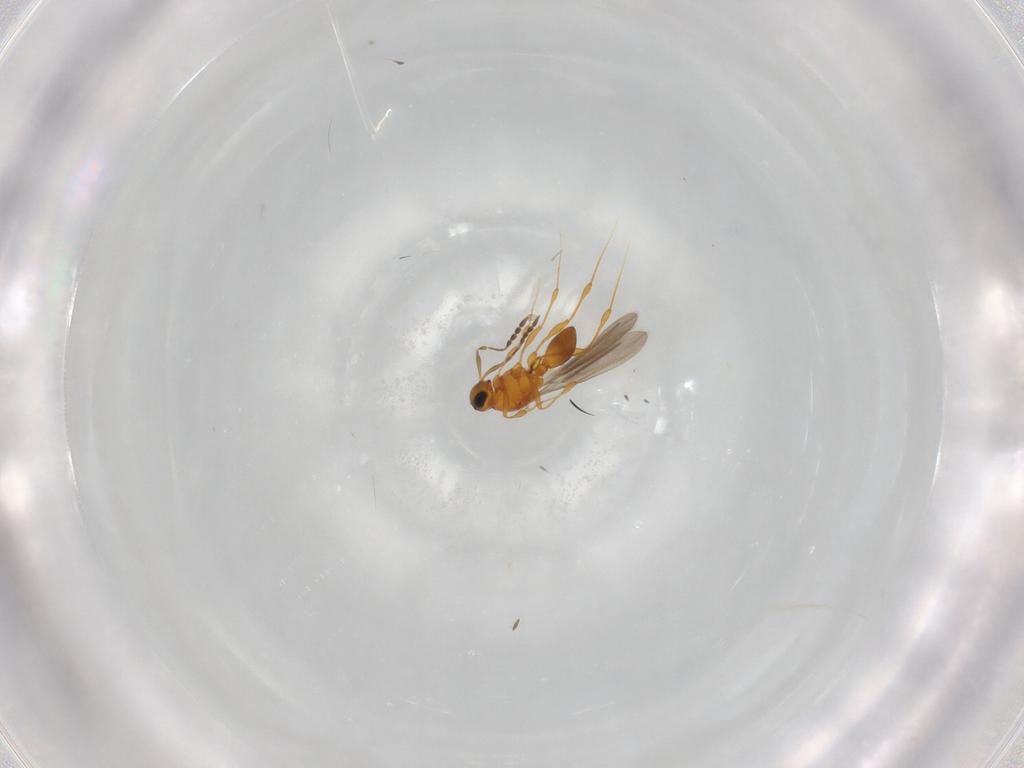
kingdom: Animalia
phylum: Arthropoda
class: Insecta
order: Hymenoptera
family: Platygastridae
